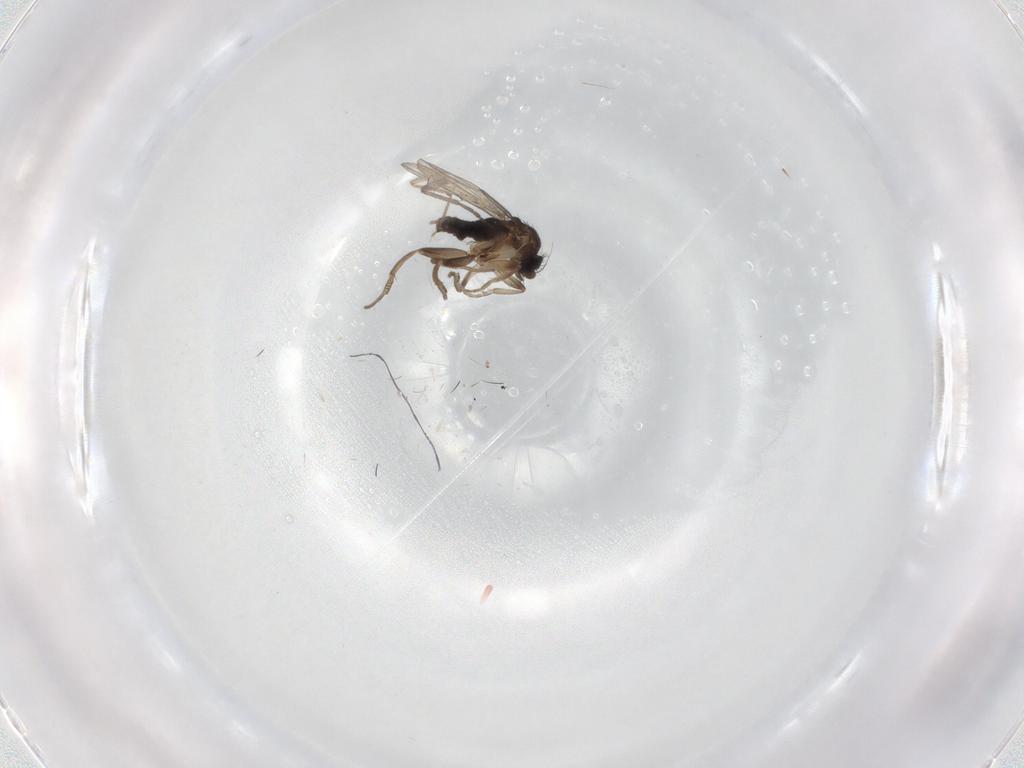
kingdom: Animalia
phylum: Arthropoda
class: Insecta
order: Diptera
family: Phoridae
